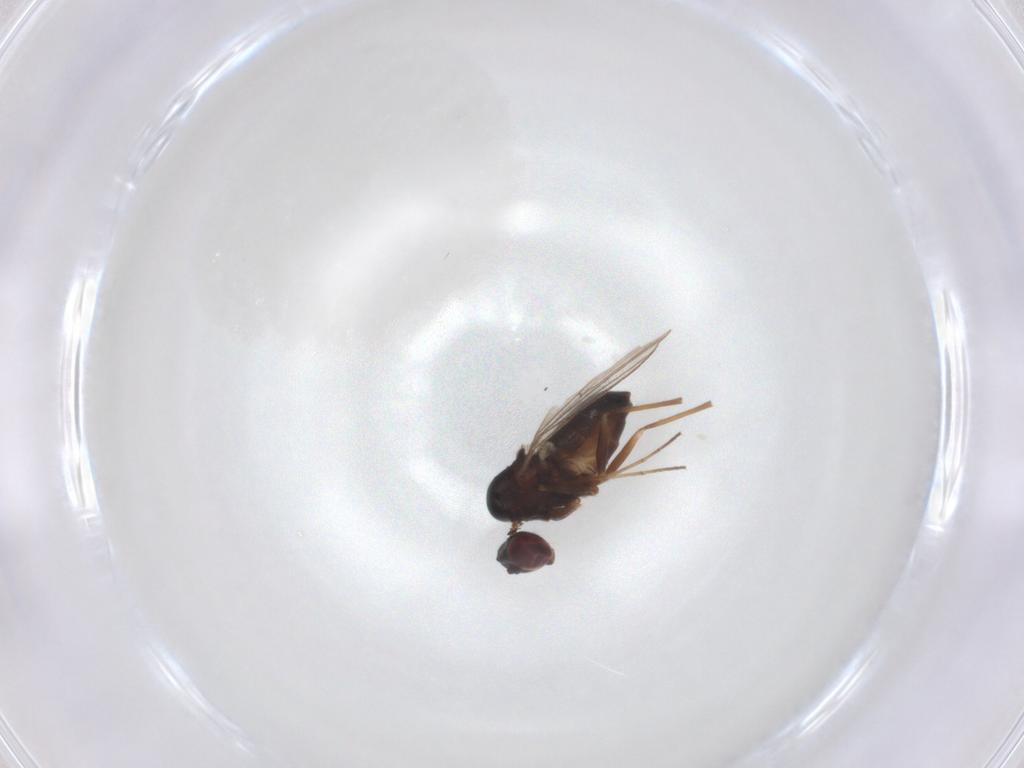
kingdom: Animalia
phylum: Arthropoda
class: Insecta
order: Diptera
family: Dolichopodidae
